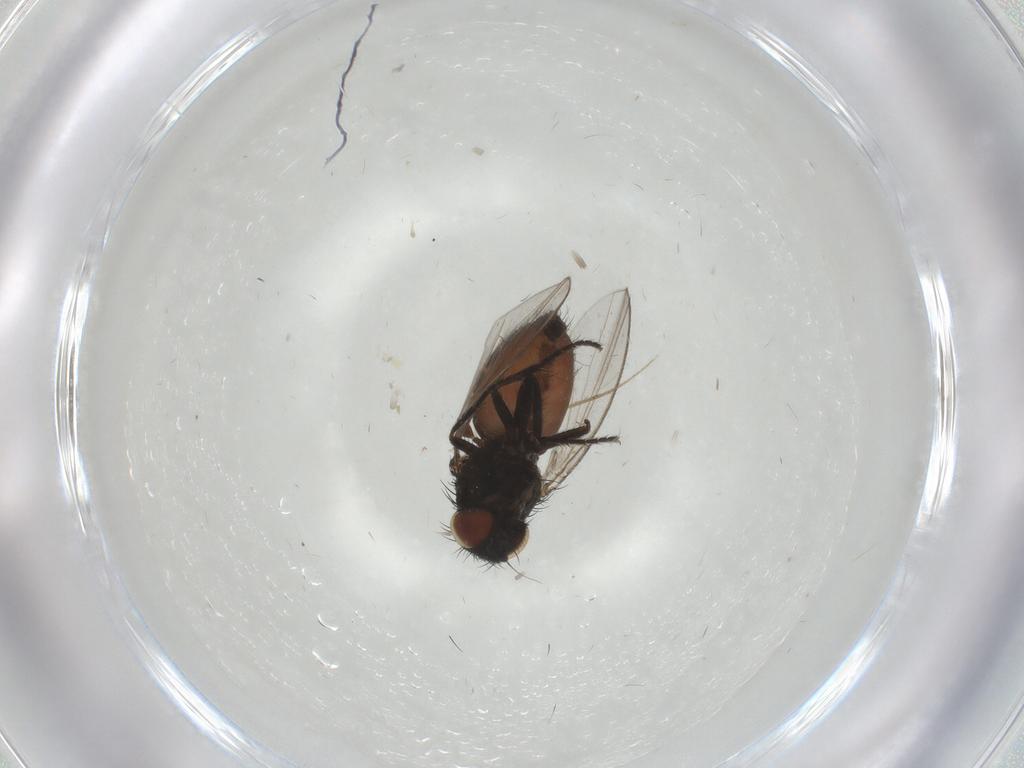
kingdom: Animalia
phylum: Arthropoda
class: Insecta
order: Diptera
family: Milichiidae
